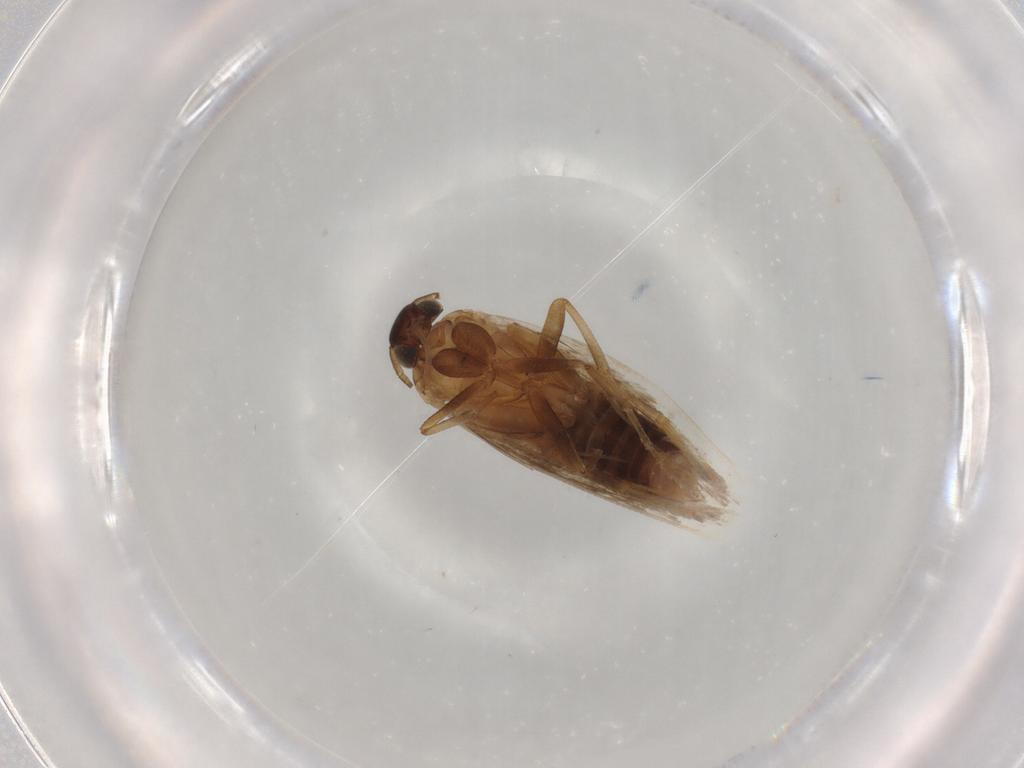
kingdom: Animalia
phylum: Arthropoda
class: Insecta
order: Lepidoptera
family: Gelechiidae
